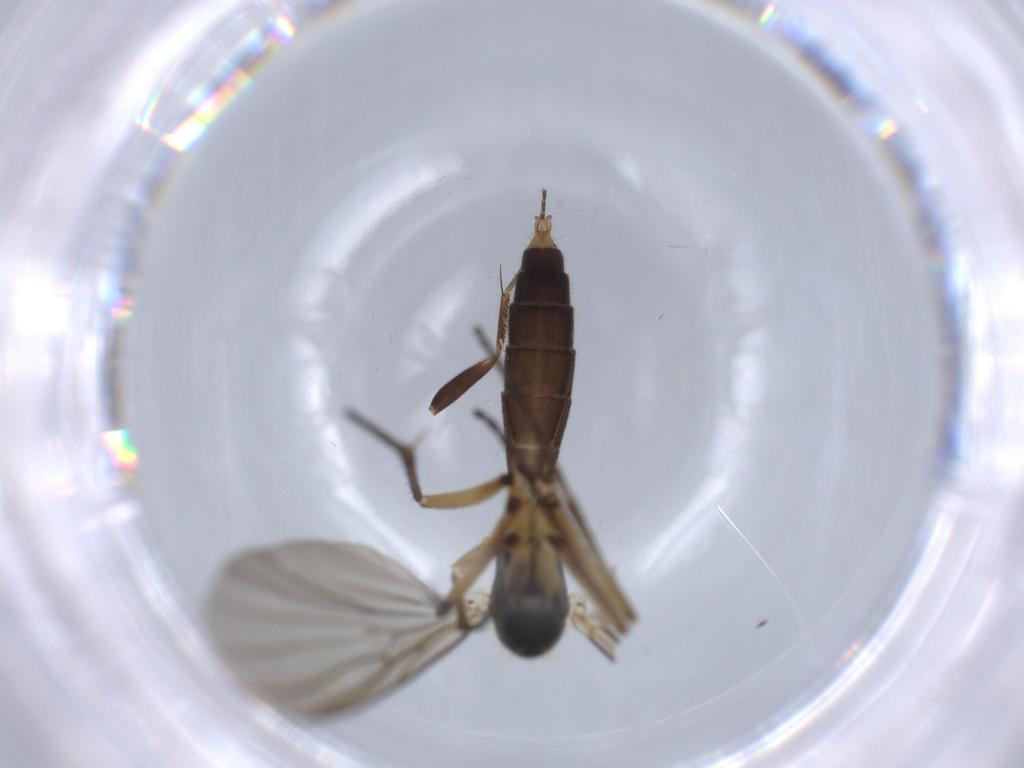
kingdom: Animalia
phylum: Arthropoda
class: Insecta
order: Diptera
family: Mycetophilidae
